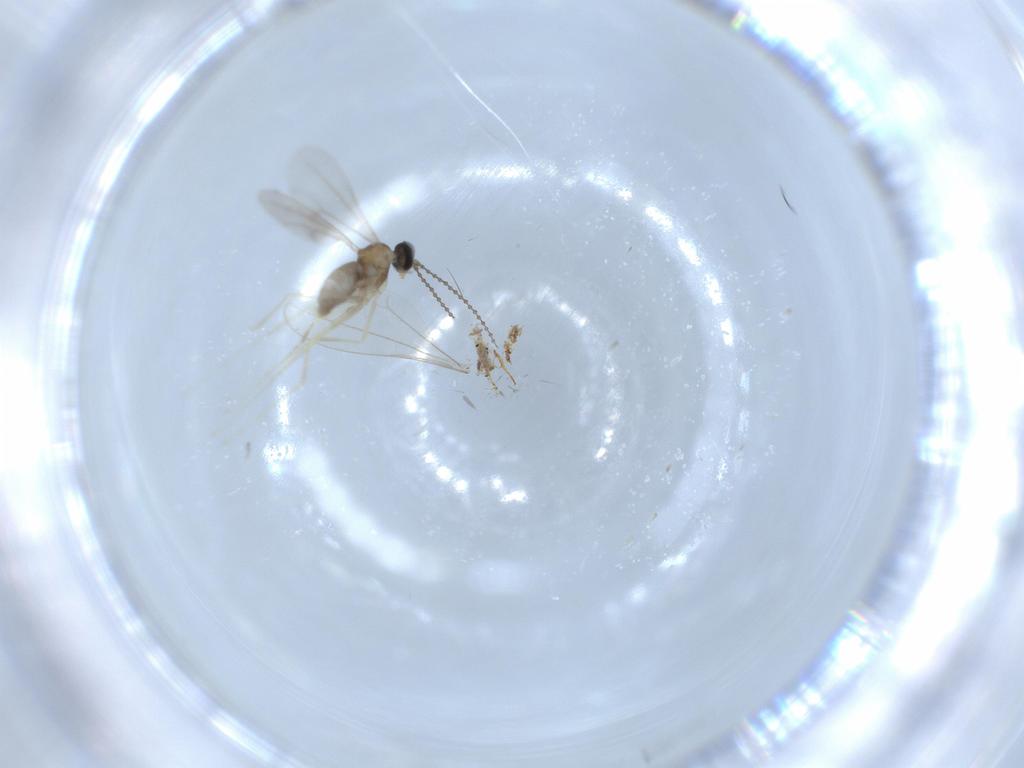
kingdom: Animalia
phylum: Arthropoda
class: Insecta
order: Diptera
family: Cecidomyiidae
